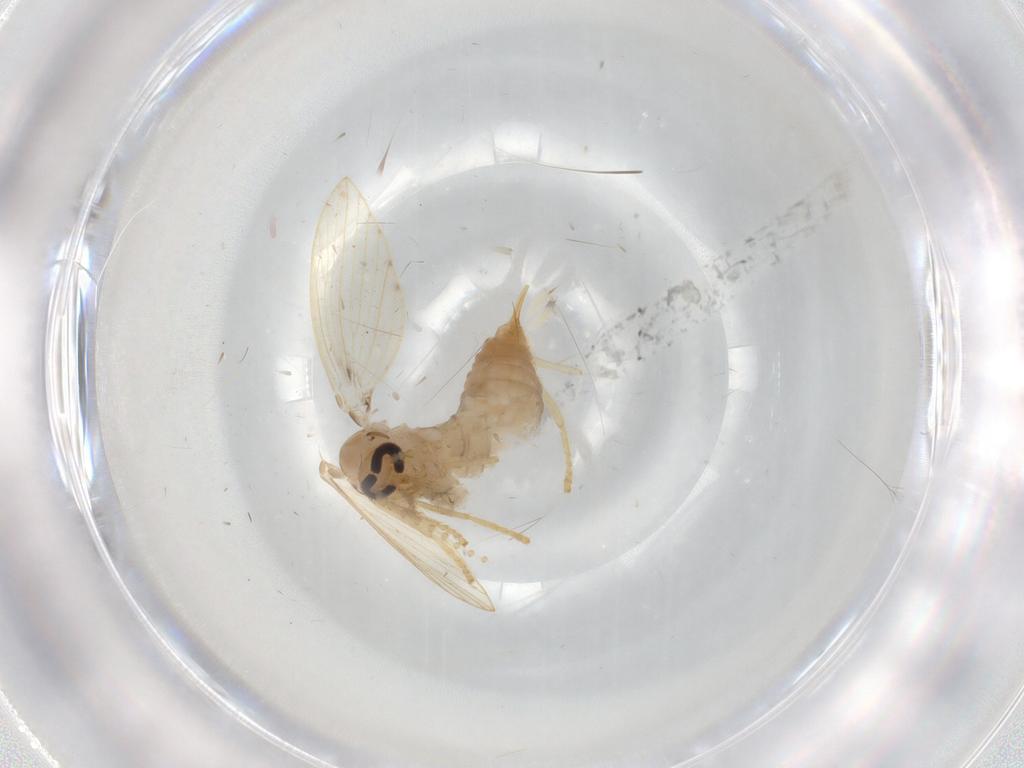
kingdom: Animalia
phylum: Arthropoda
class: Insecta
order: Diptera
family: Psychodidae
